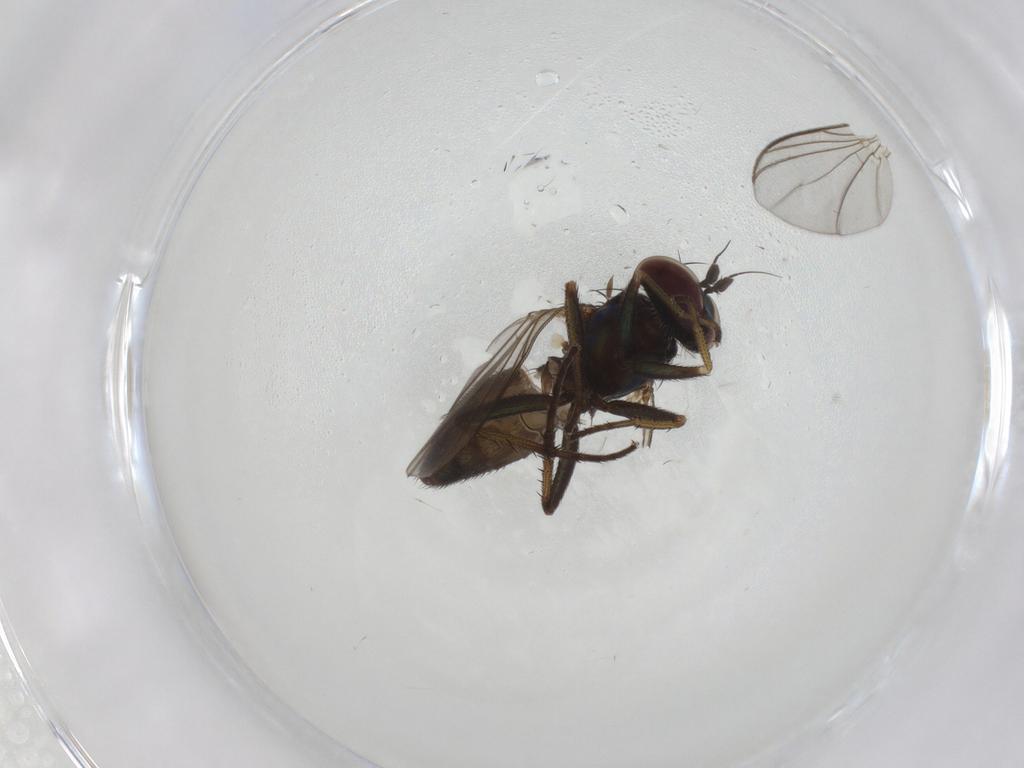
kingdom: Animalia
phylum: Arthropoda
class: Insecta
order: Diptera
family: Dolichopodidae
